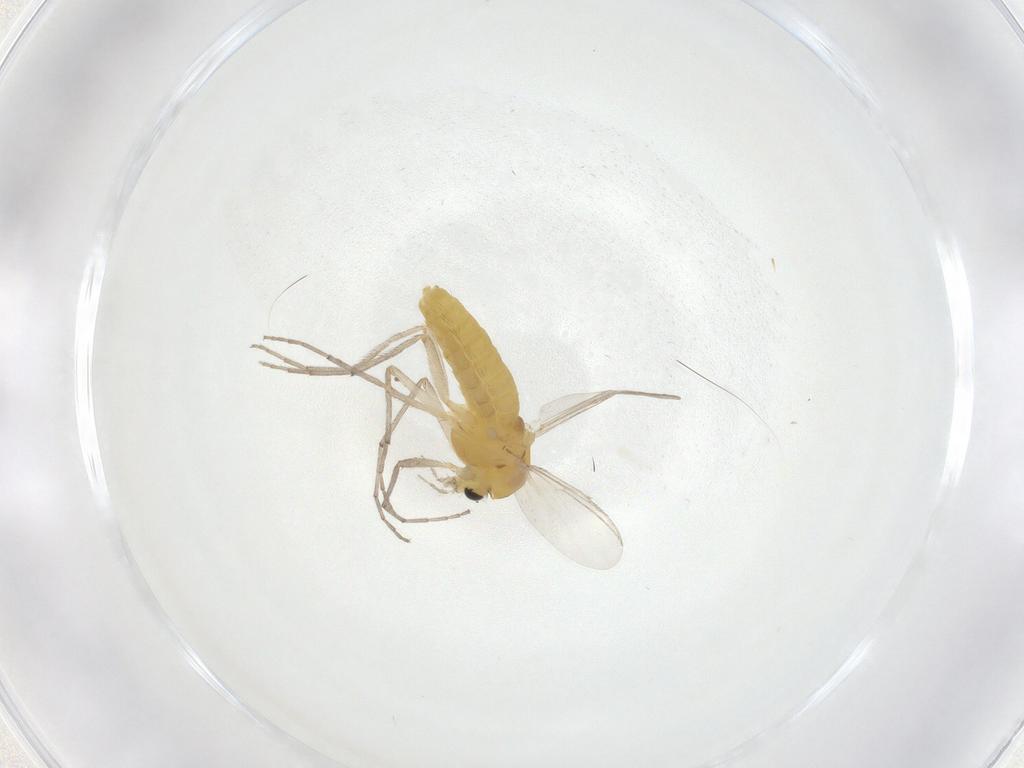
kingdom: Animalia
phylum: Arthropoda
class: Insecta
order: Diptera
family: Chironomidae
